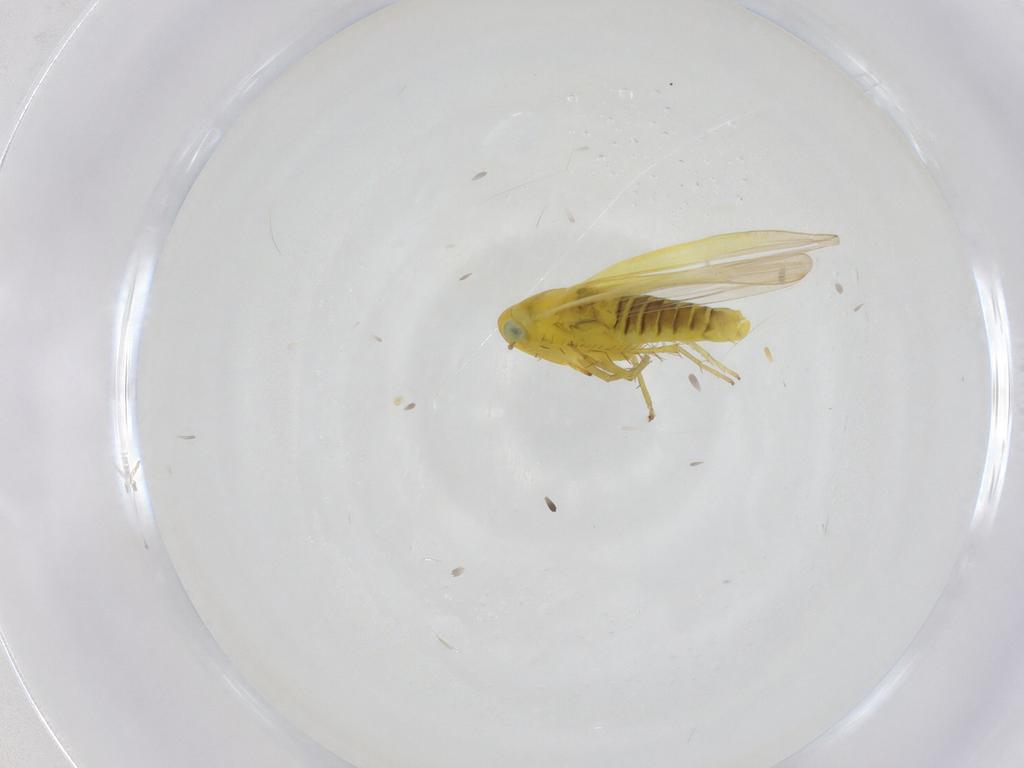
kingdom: Animalia
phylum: Arthropoda
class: Insecta
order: Hemiptera
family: Cicadellidae
